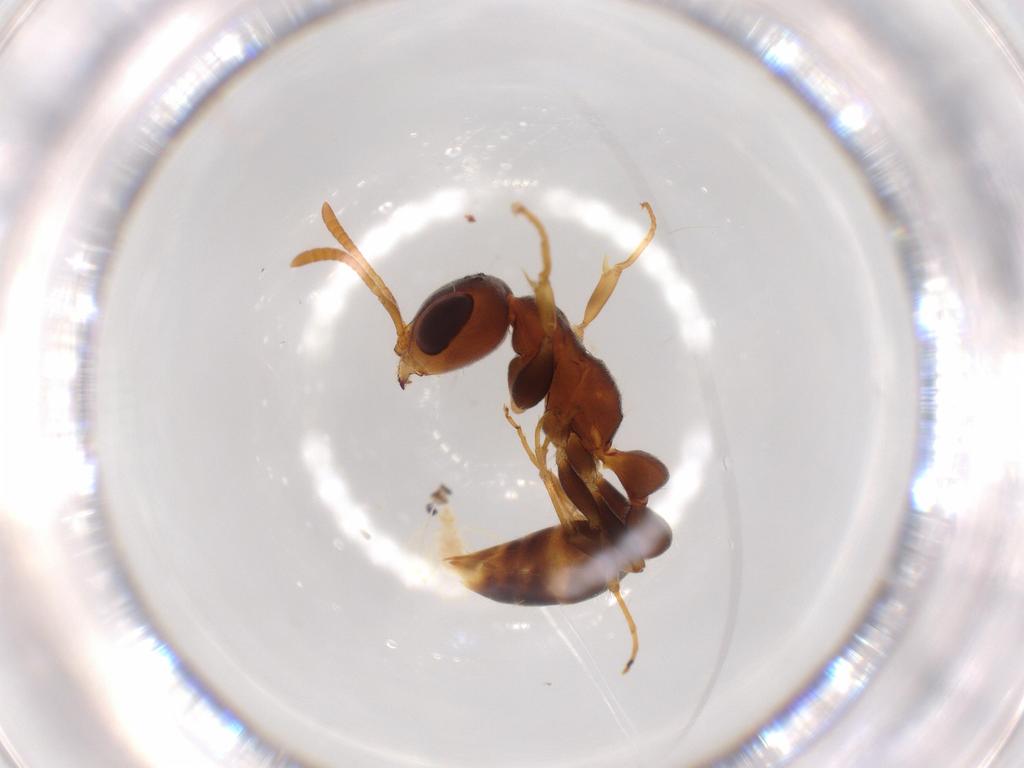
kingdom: Animalia
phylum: Arthropoda
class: Insecta
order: Hymenoptera
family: Formicidae
